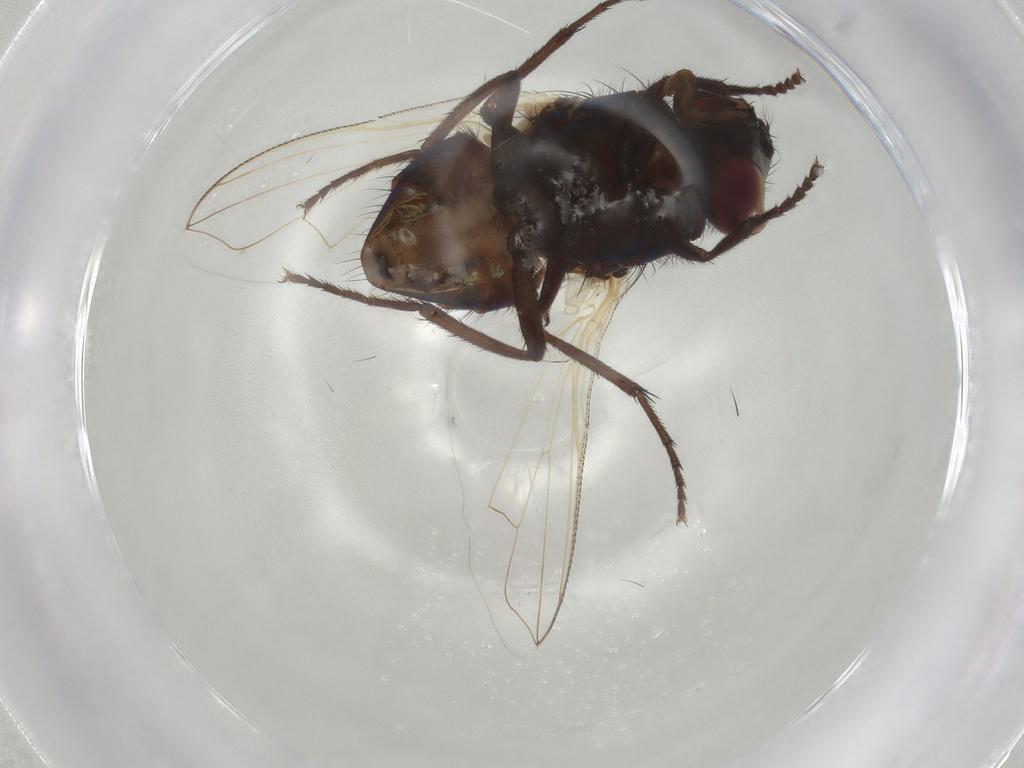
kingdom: Animalia
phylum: Arthropoda
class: Insecta
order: Diptera
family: Muscidae
